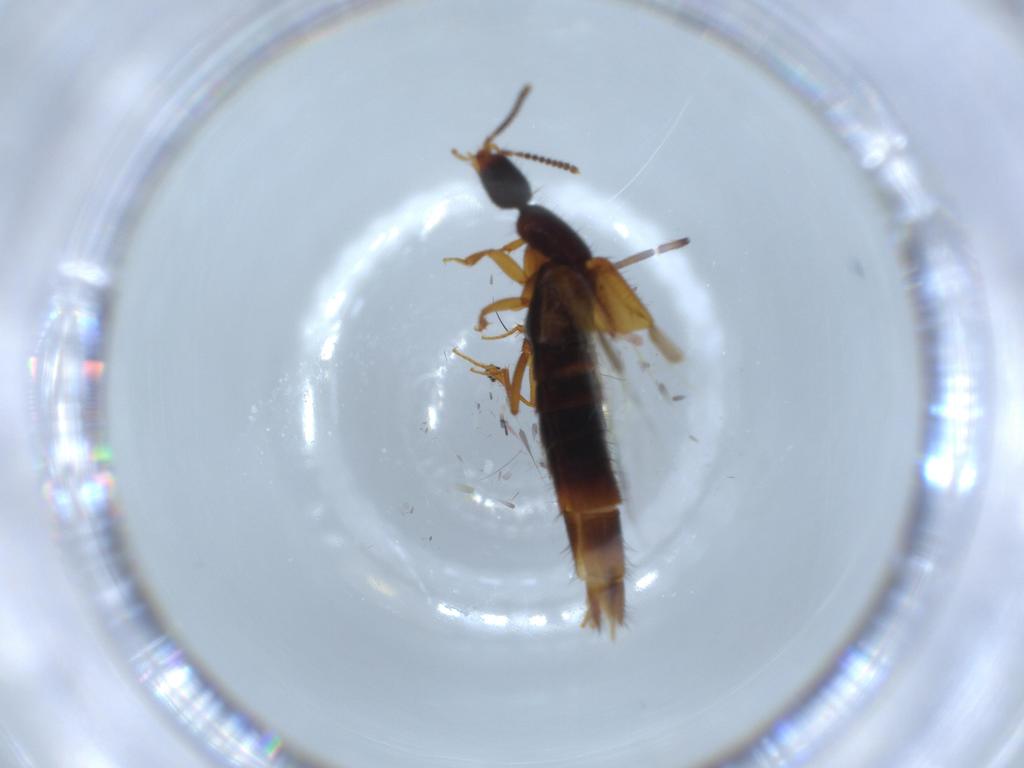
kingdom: Animalia
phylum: Arthropoda
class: Insecta
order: Coleoptera
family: Staphylinidae
